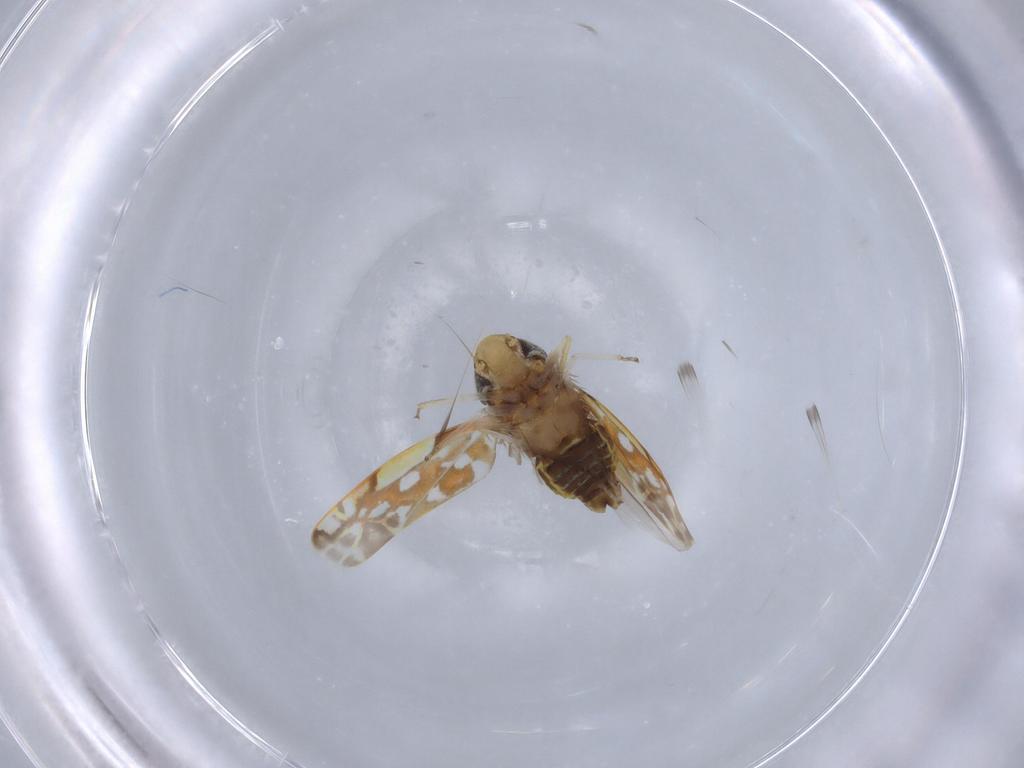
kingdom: Animalia
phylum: Arthropoda
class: Insecta
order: Hemiptera
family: Cicadellidae
